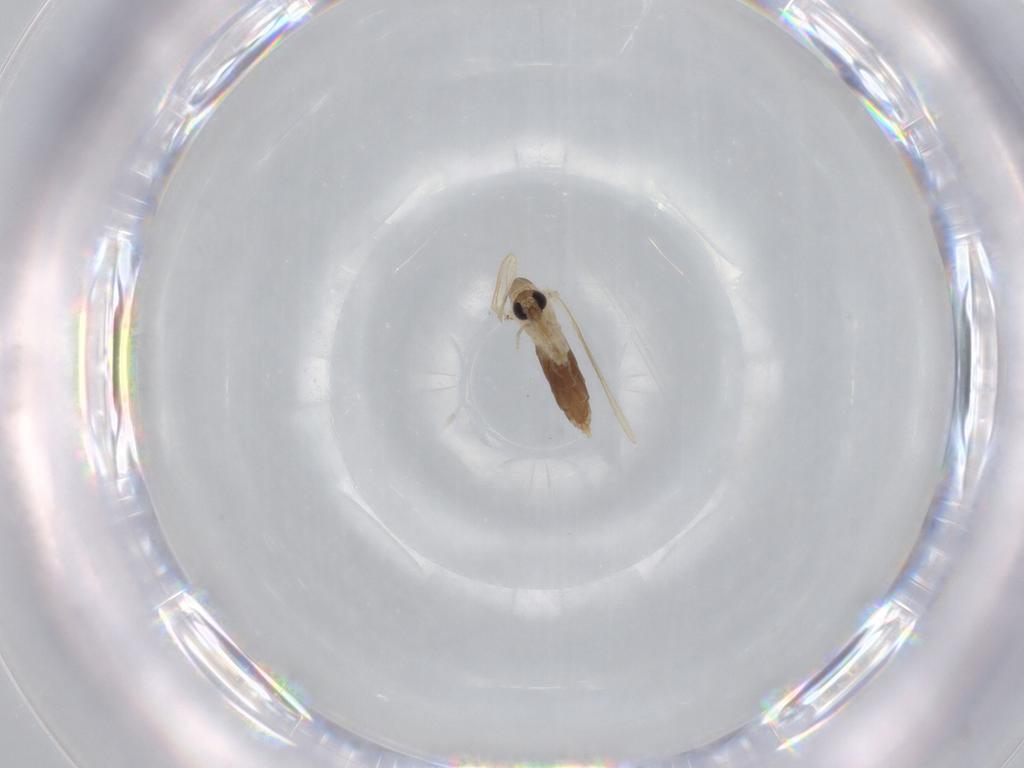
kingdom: Animalia
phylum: Arthropoda
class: Insecta
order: Diptera
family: Psychodidae
